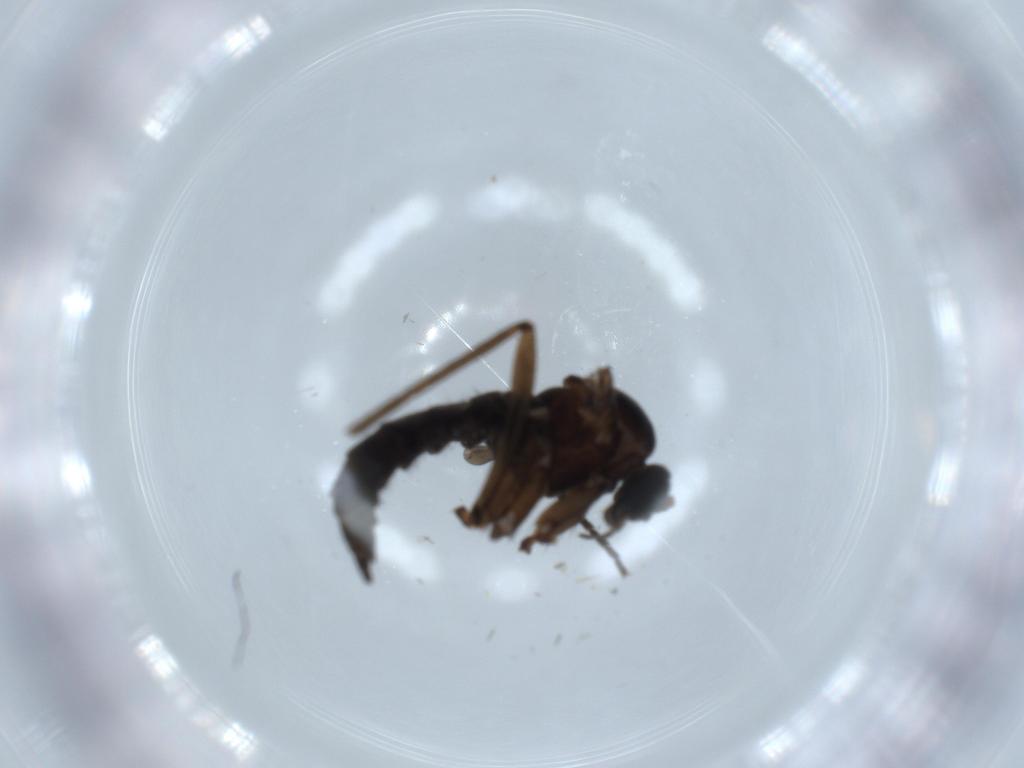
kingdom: Animalia
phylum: Arthropoda
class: Insecta
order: Diptera
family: Sciaridae
